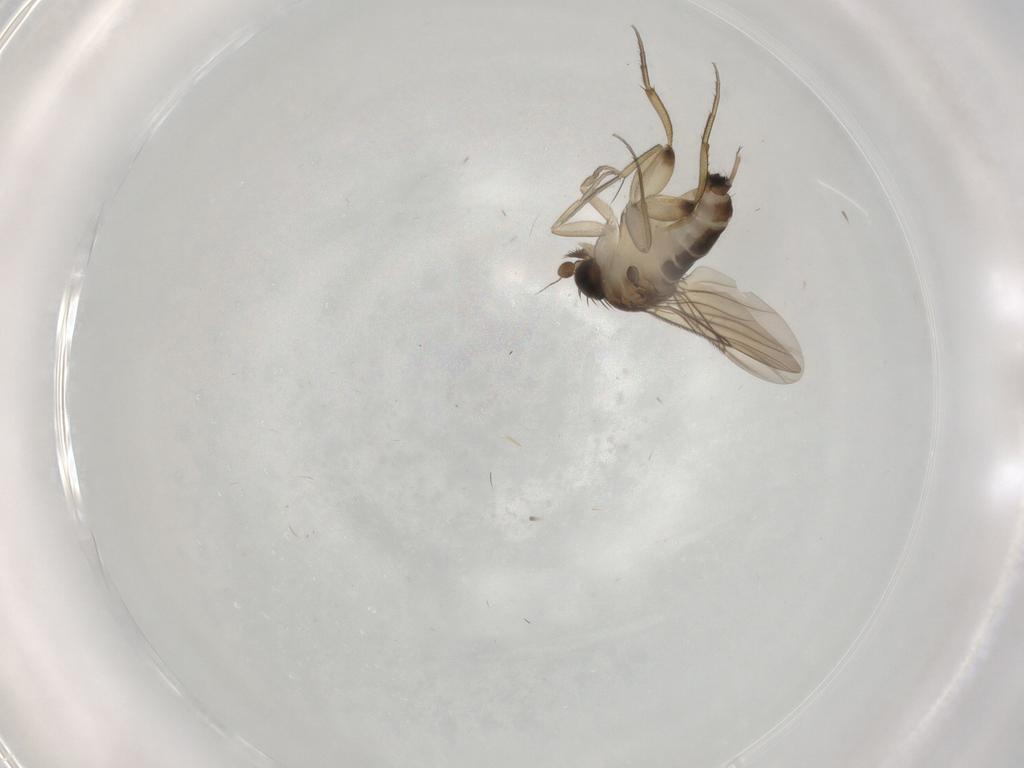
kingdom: Animalia
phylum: Arthropoda
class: Insecta
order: Diptera
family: Phoridae
